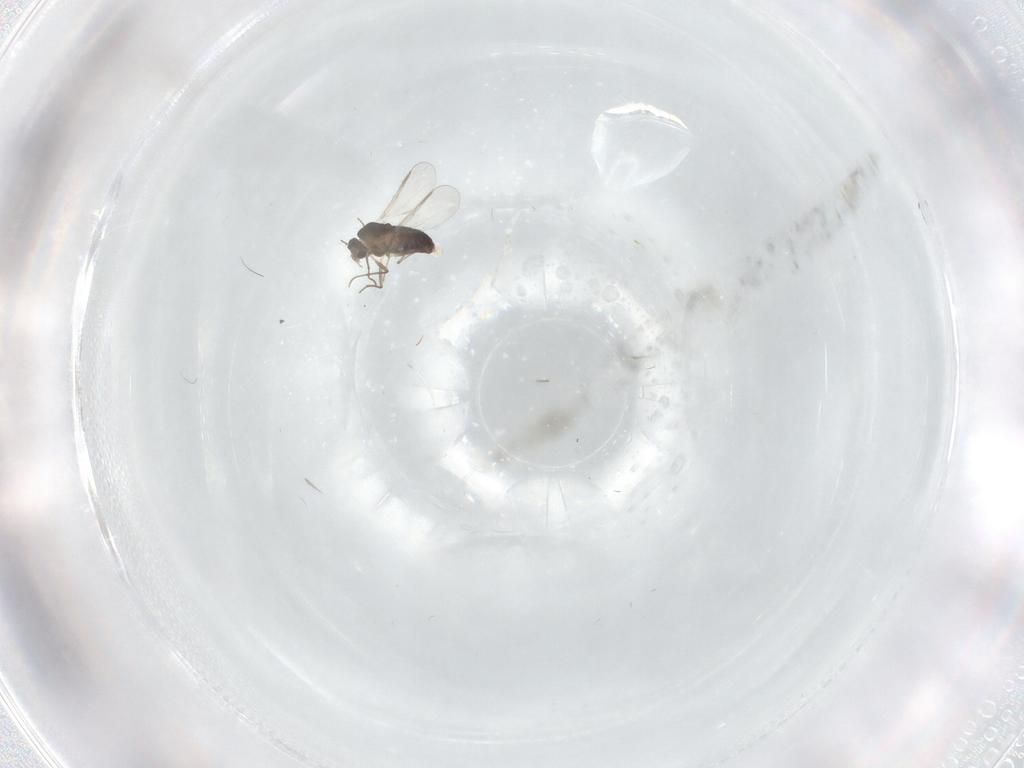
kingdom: Animalia
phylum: Arthropoda
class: Insecta
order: Diptera
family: Chironomidae
